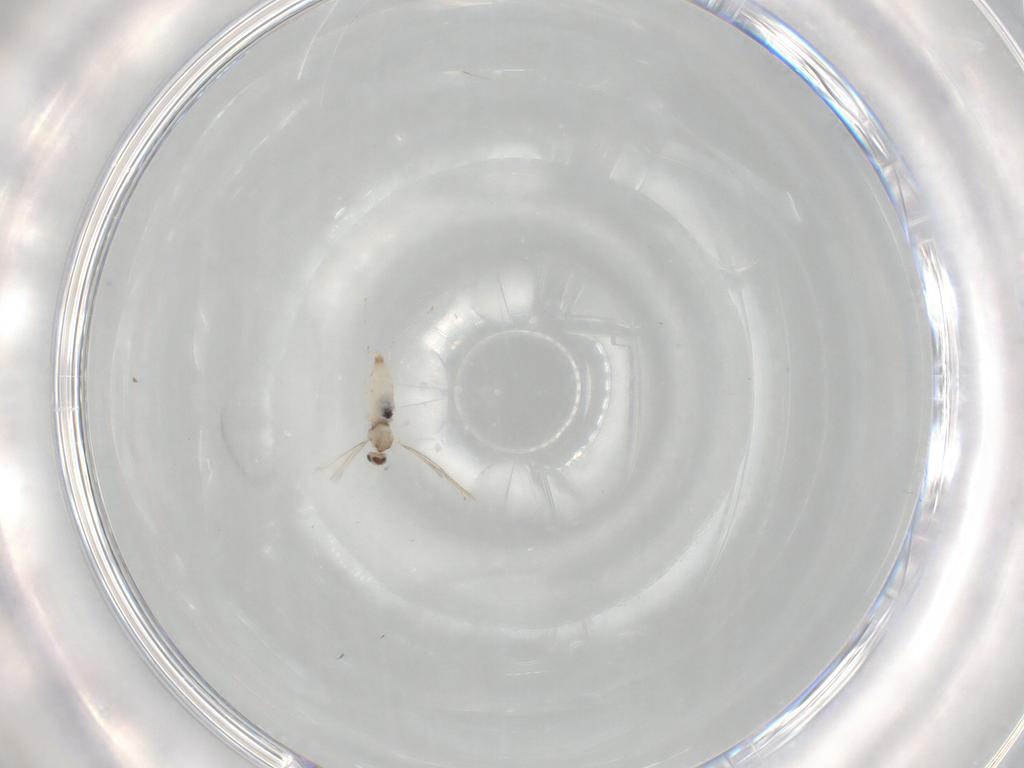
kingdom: Animalia
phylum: Arthropoda
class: Insecta
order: Diptera
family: Cecidomyiidae
